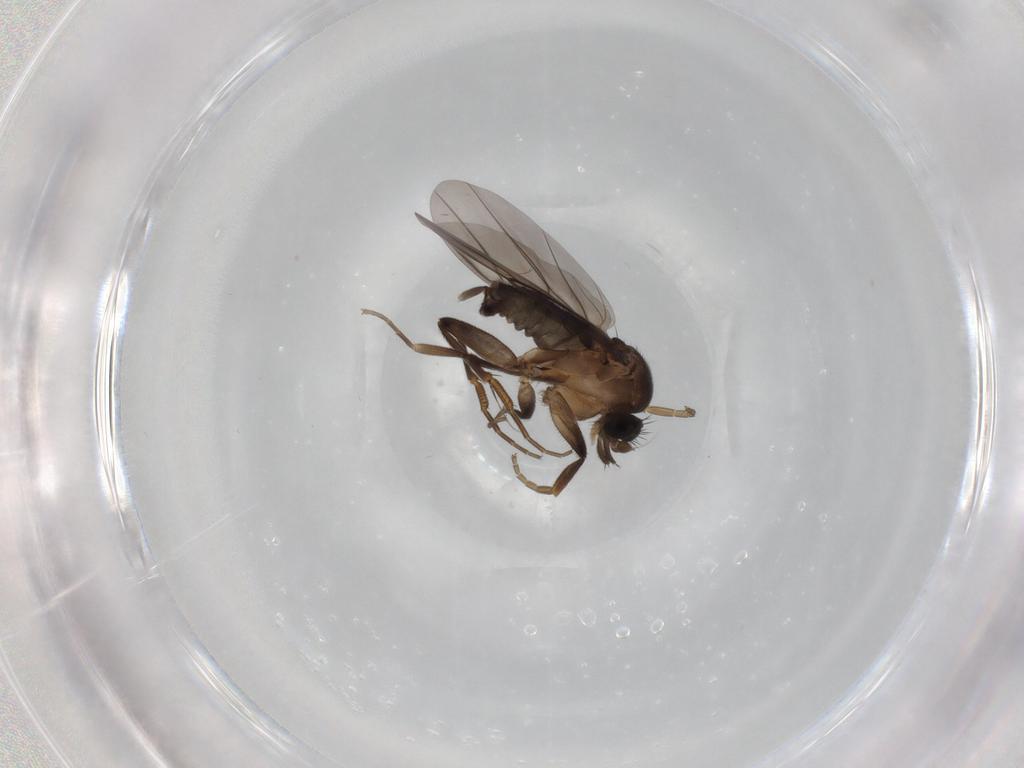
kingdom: Animalia
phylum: Arthropoda
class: Insecta
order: Diptera
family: Phoridae
